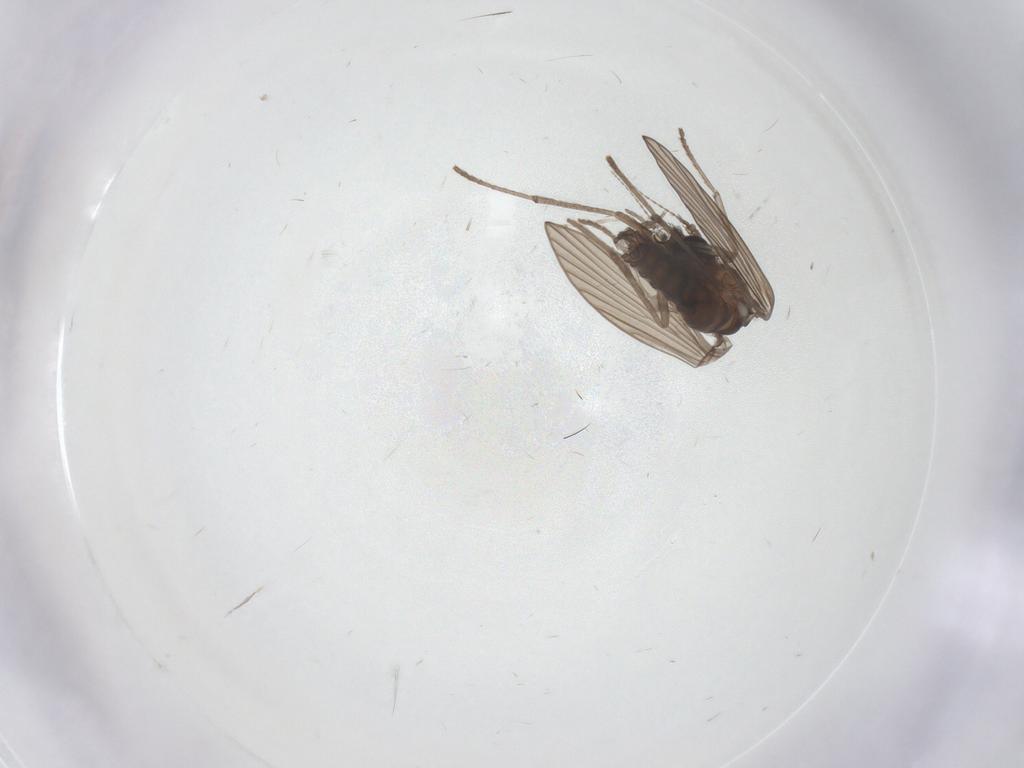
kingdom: Animalia
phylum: Arthropoda
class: Insecta
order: Diptera
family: Psychodidae
